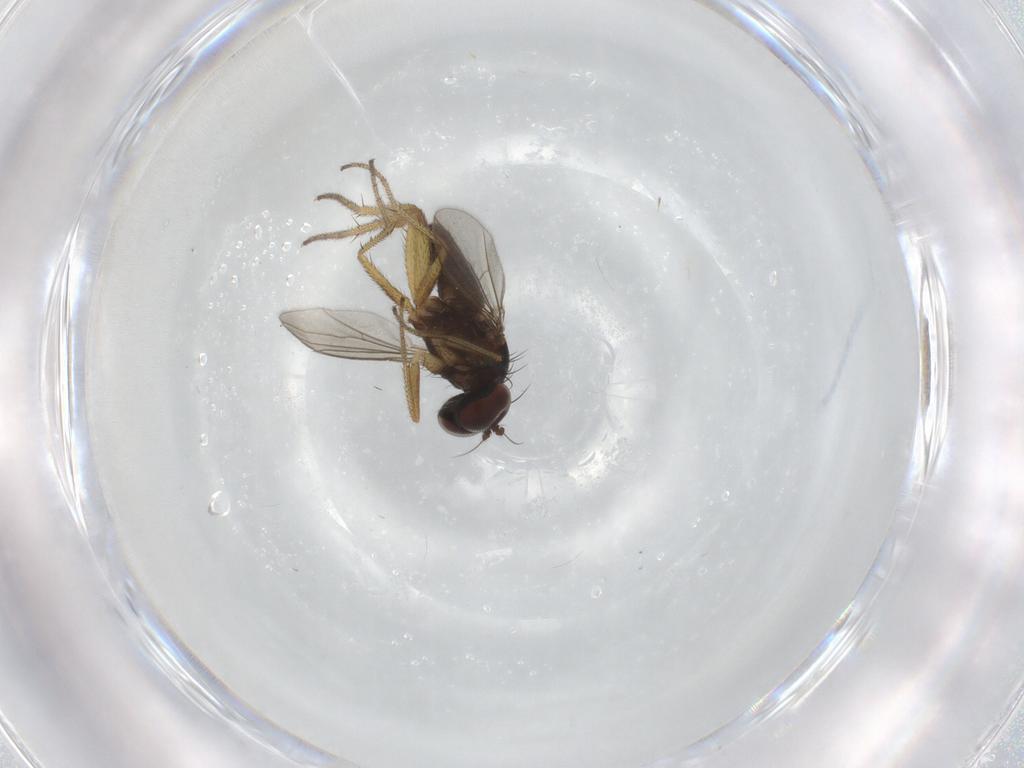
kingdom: Animalia
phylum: Arthropoda
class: Insecta
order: Diptera
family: Chironomidae
